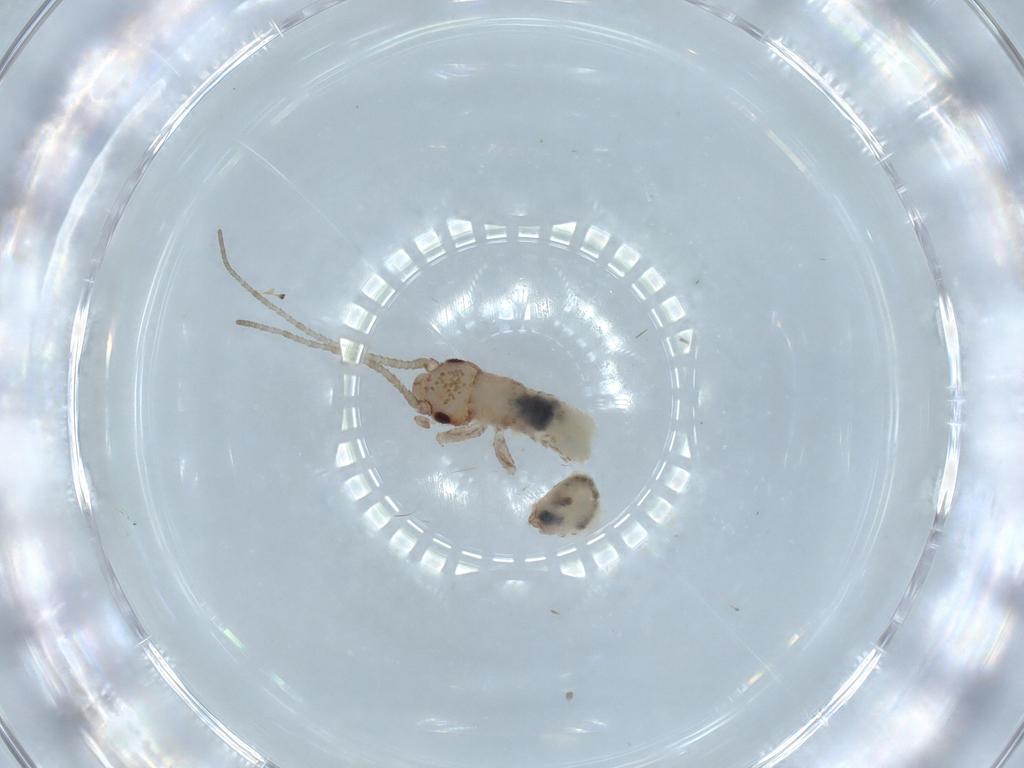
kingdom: Animalia
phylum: Arthropoda
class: Insecta
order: Orthoptera
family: Mogoplistidae
